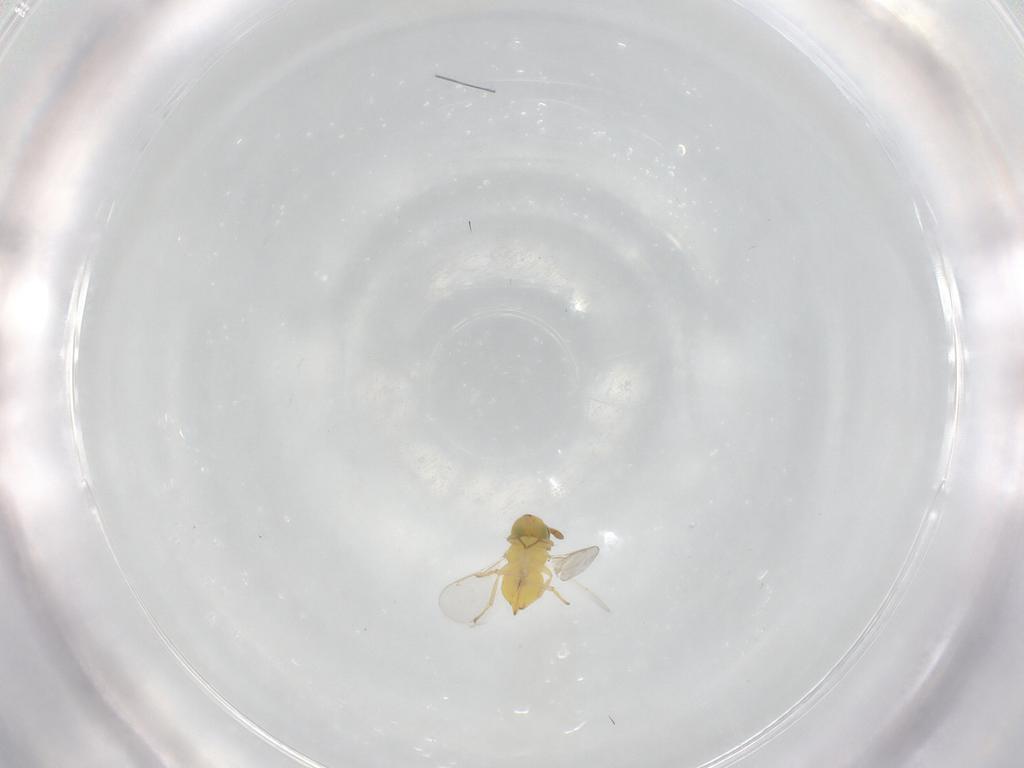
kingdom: Animalia
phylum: Arthropoda
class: Insecta
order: Hymenoptera
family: Aphelinidae
